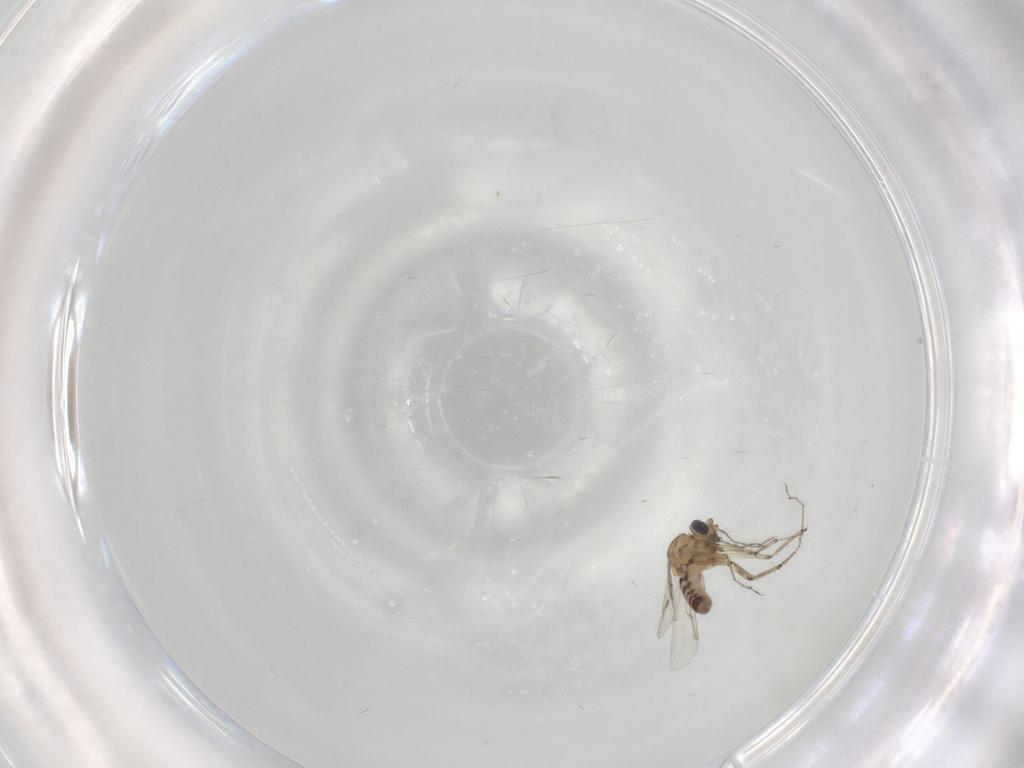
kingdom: Animalia
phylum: Arthropoda
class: Insecta
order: Diptera
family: Ceratopogonidae
